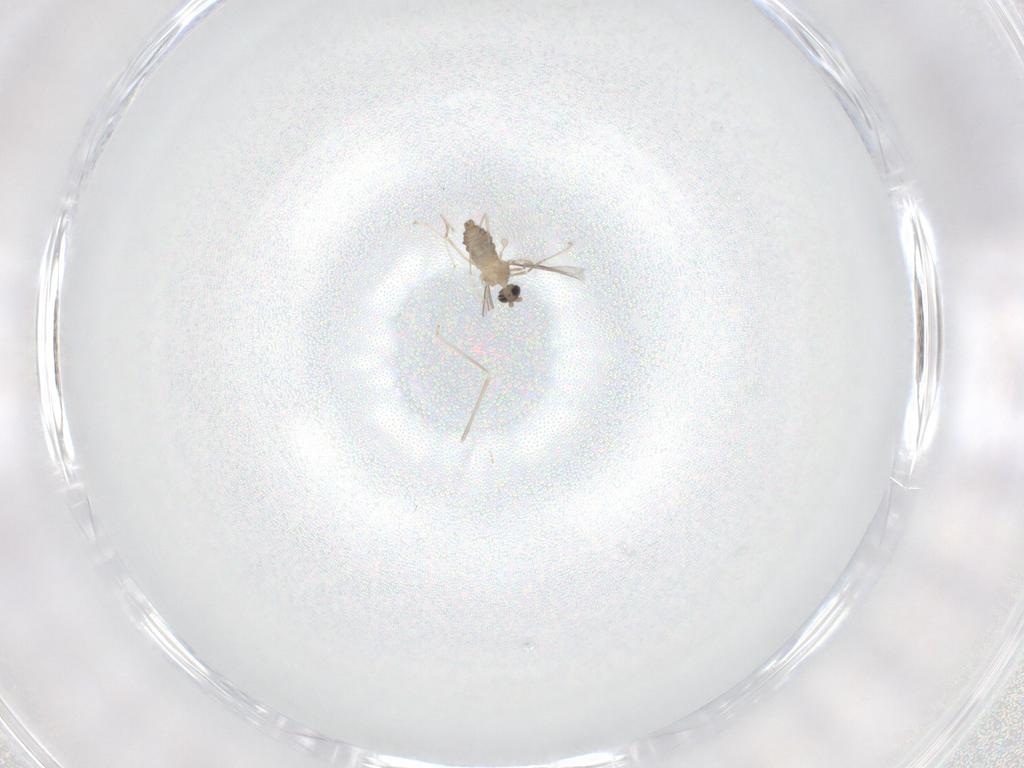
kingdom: Animalia
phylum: Arthropoda
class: Insecta
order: Diptera
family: Cecidomyiidae
